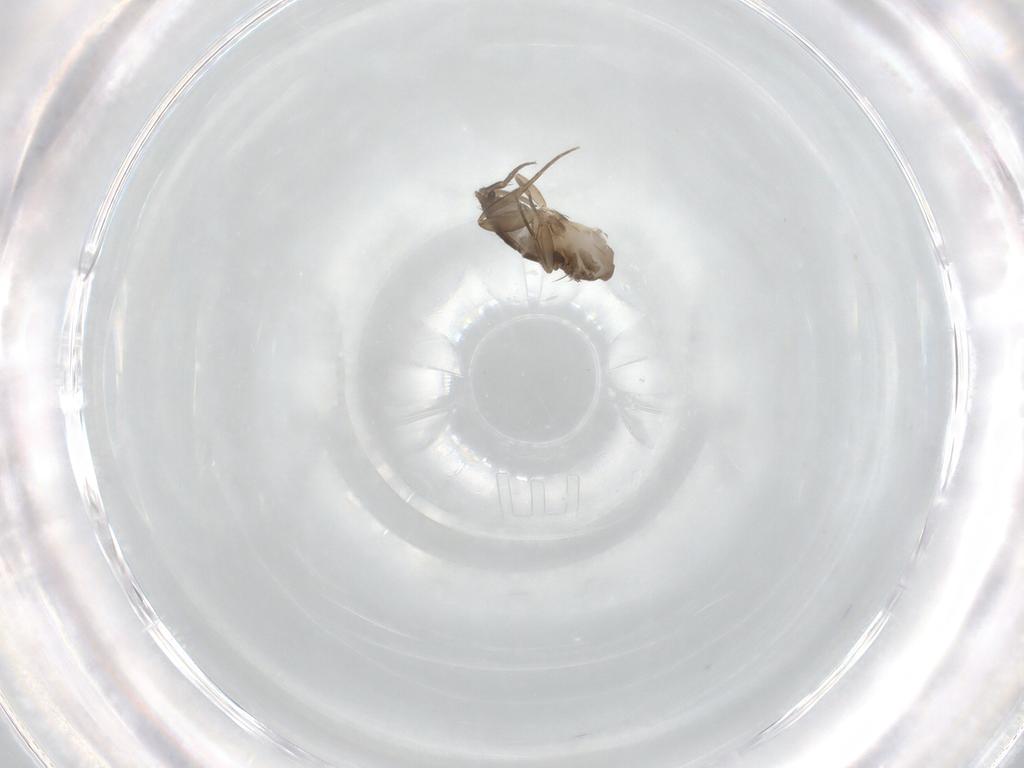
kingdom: Animalia
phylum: Arthropoda
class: Insecta
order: Diptera
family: Phoridae
